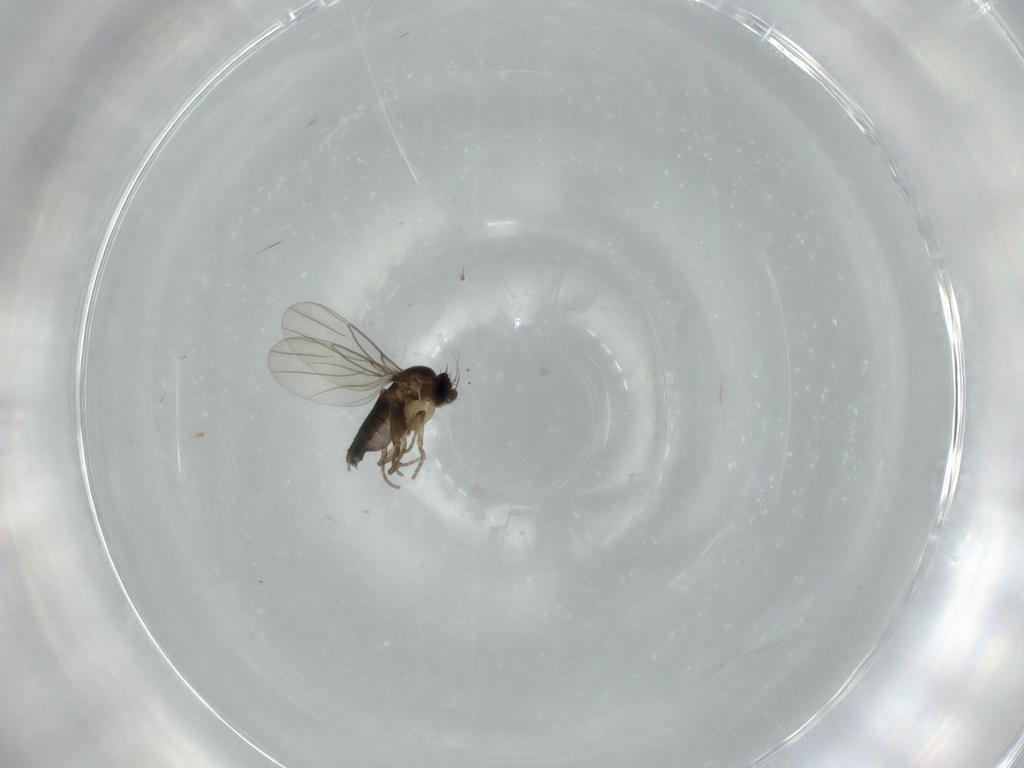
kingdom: Animalia
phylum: Arthropoda
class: Insecta
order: Diptera
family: Phoridae
